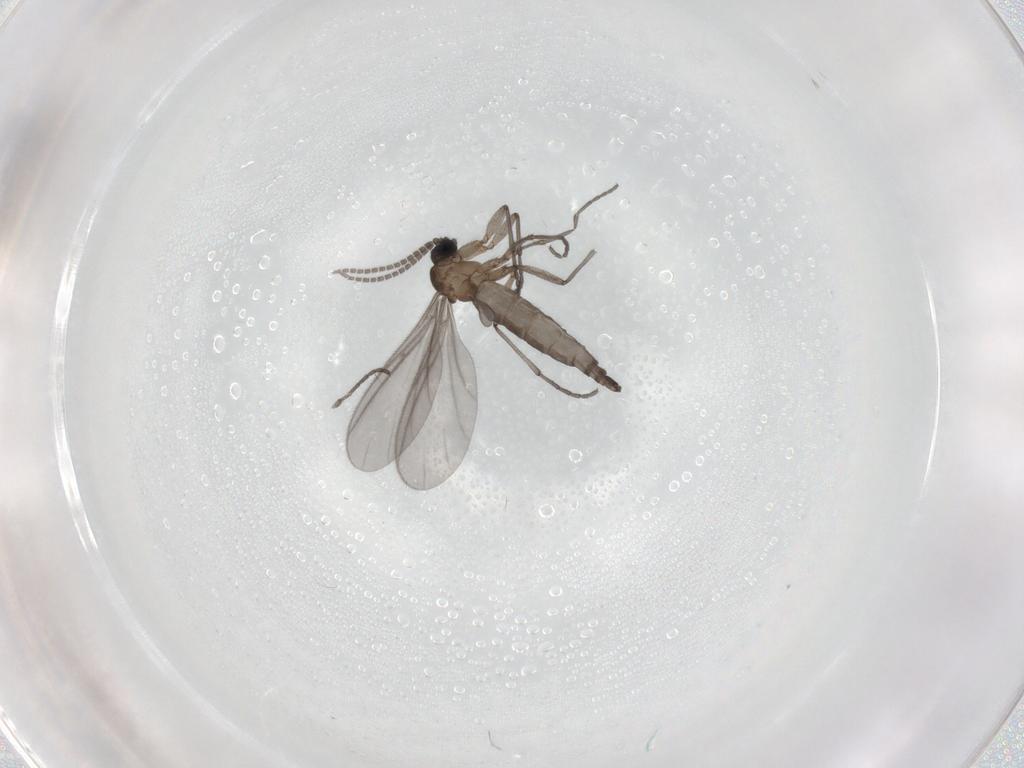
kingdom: Animalia
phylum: Arthropoda
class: Insecta
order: Diptera
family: Sciaridae
